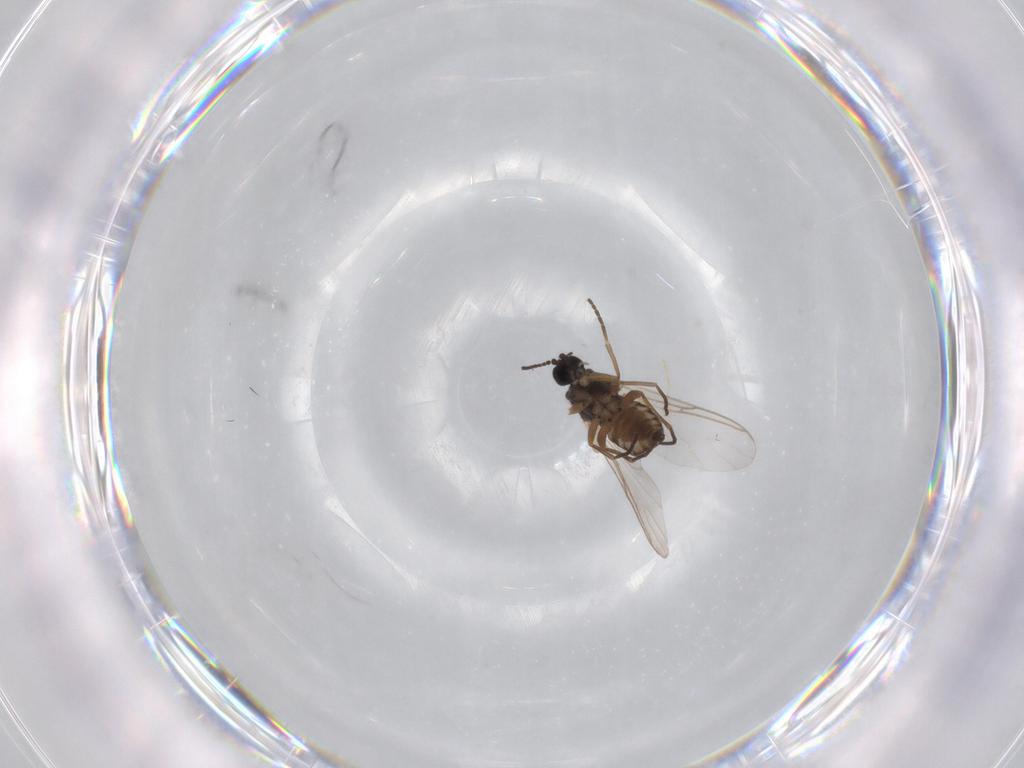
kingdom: Animalia
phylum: Arthropoda
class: Insecta
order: Diptera
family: Sciaridae
